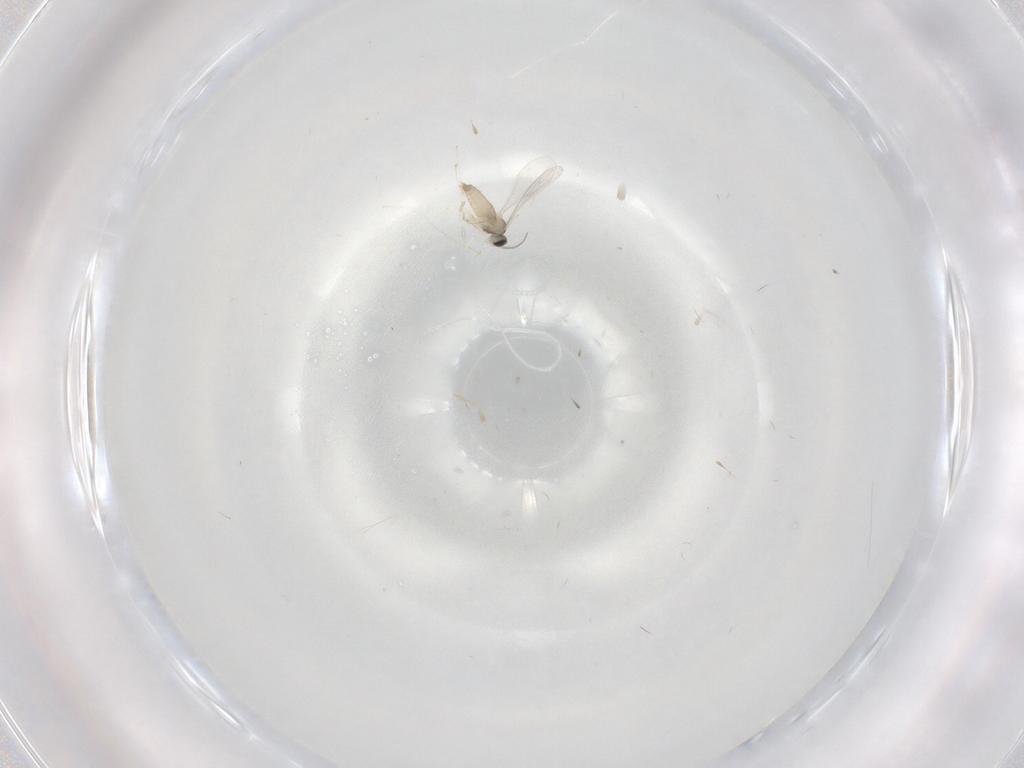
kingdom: Animalia
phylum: Arthropoda
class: Insecta
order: Diptera
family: Phoridae
